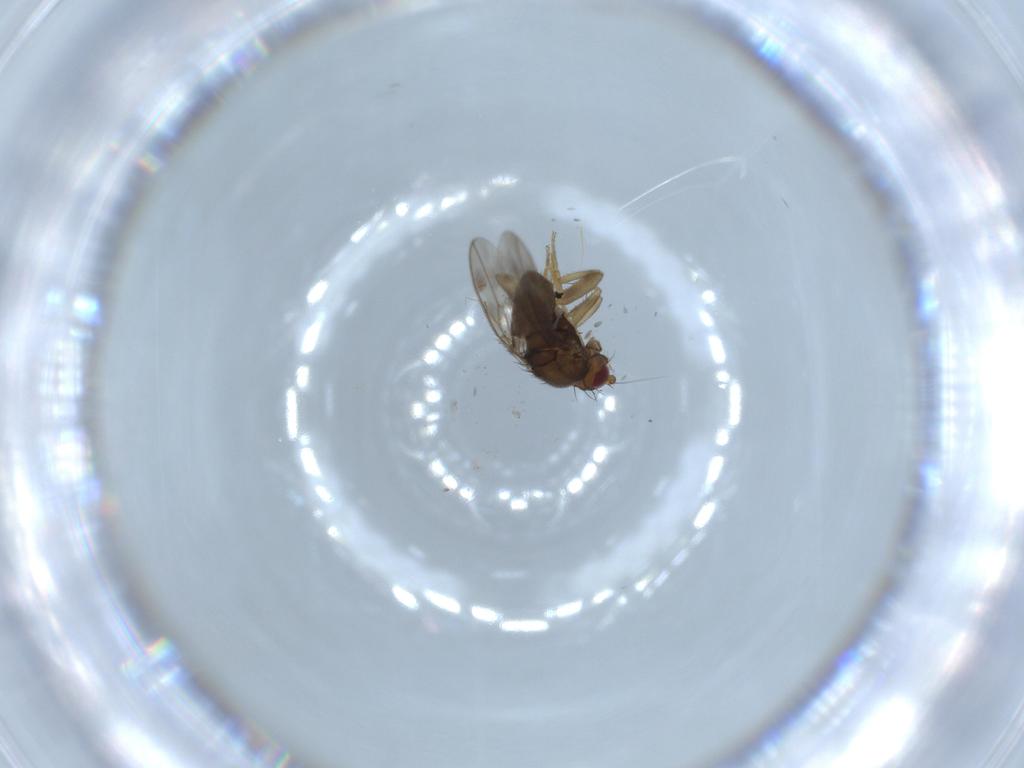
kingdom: Animalia
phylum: Arthropoda
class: Insecta
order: Diptera
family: Sphaeroceridae
